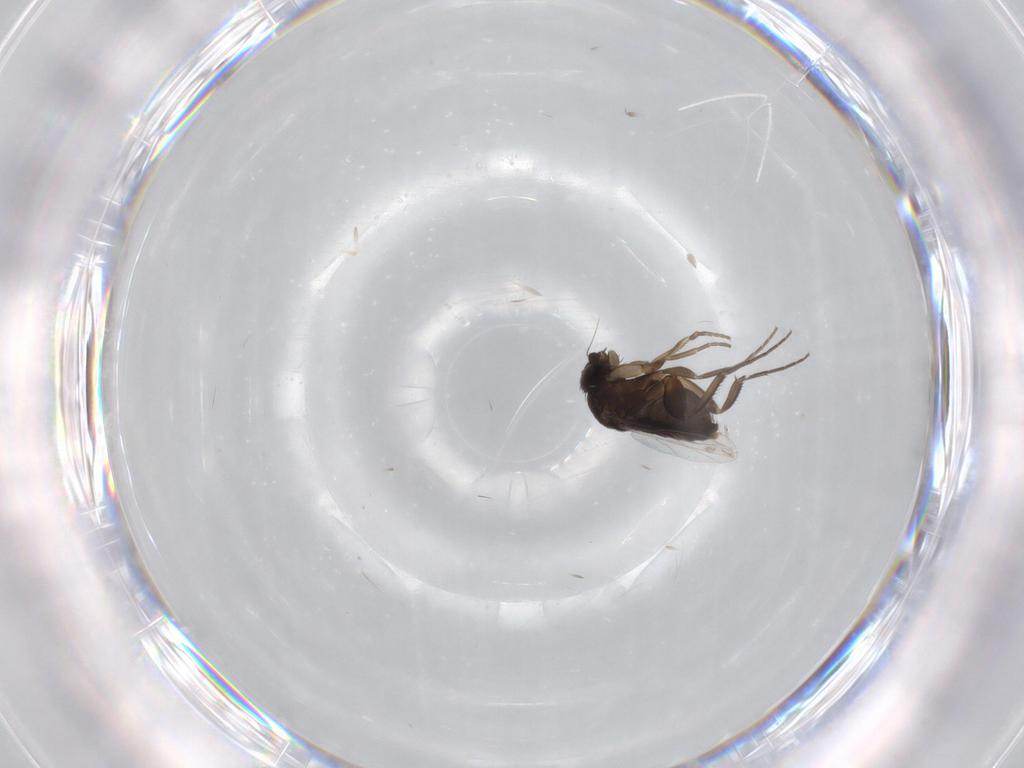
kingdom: Animalia
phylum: Arthropoda
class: Insecta
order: Diptera
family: Phoridae
